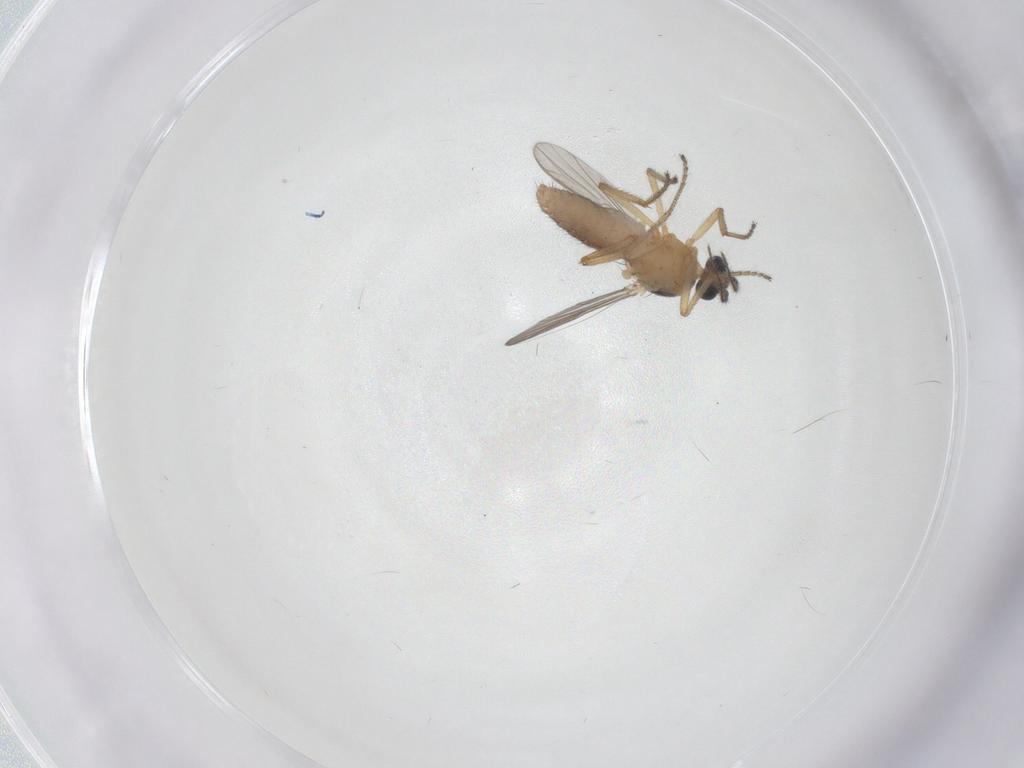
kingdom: Animalia
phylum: Arthropoda
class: Insecta
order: Diptera
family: Ceratopogonidae
